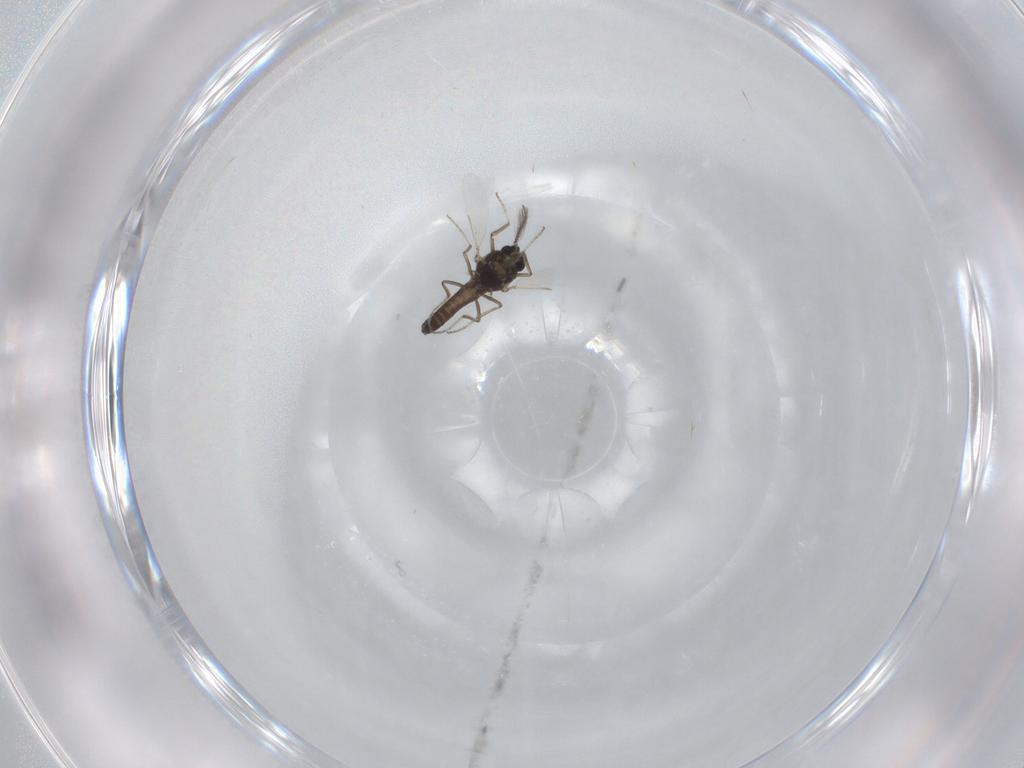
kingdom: Animalia
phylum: Arthropoda
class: Insecta
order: Diptera
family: Ceratopogonidae
